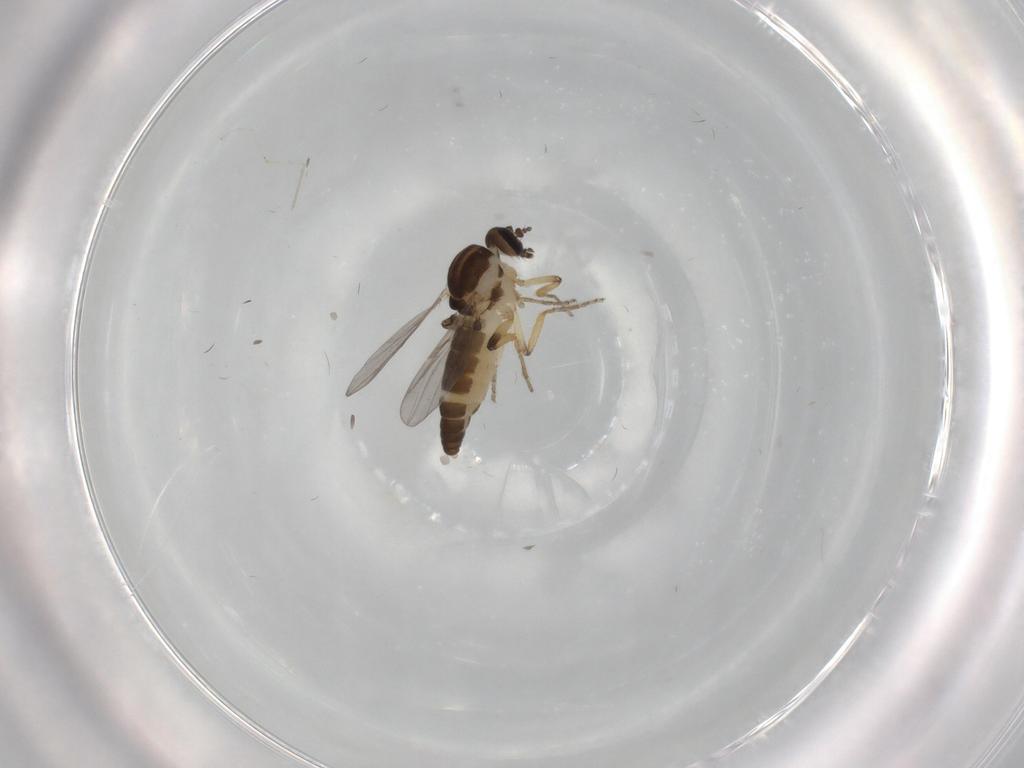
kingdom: Animalia
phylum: Arthropoda
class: Insecta
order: Diptera
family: Ceratopogonidae
